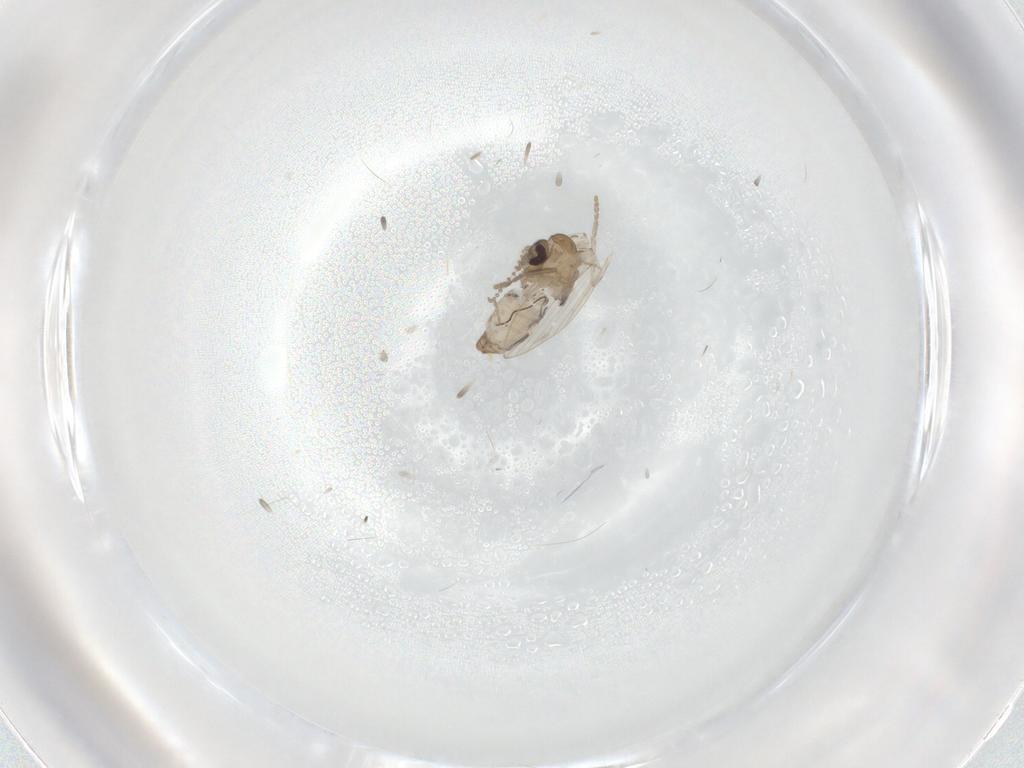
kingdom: Animalia
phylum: Arthropoda
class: Insecta
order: Diptera
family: Psychodidae
